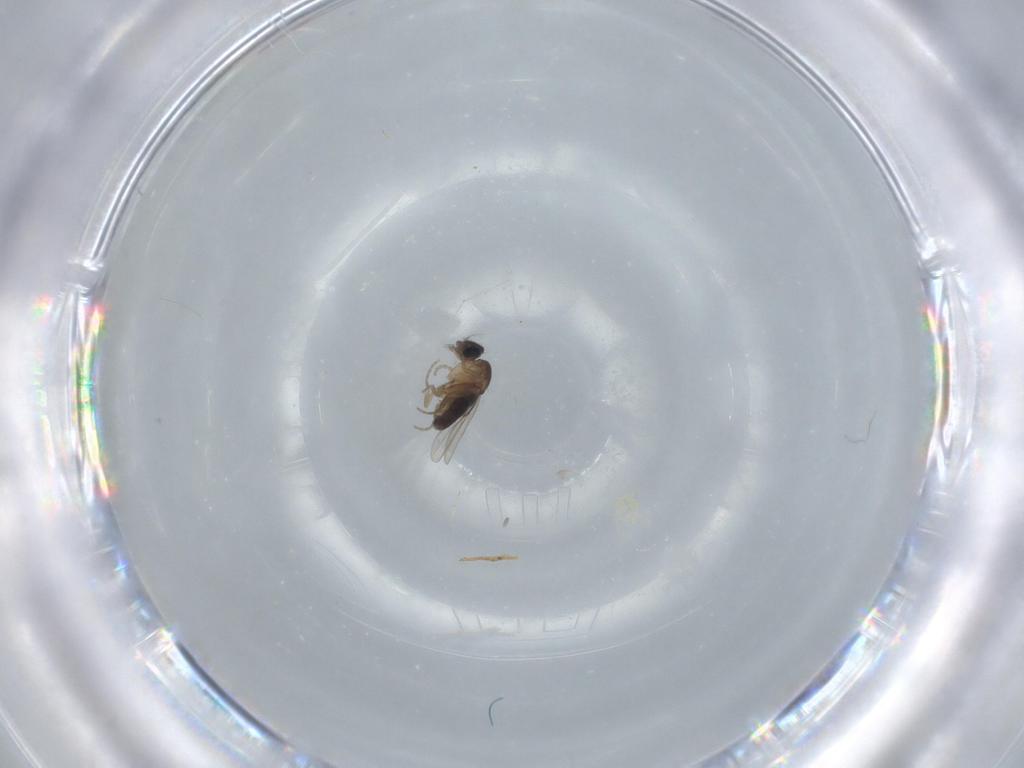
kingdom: Animalia
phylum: Arthropoda
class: Insecta
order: Diptera
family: Phoridae
